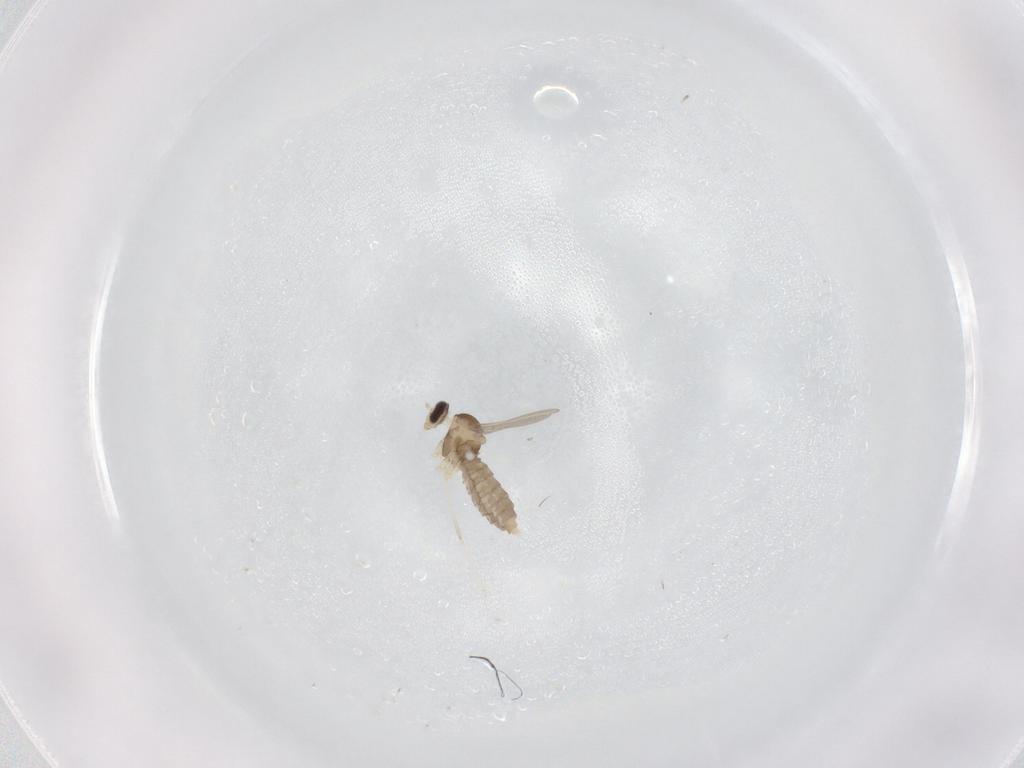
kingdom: Animalia
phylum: Arthropoda
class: Insecta
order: Diptera
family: Cecidomyiidae
